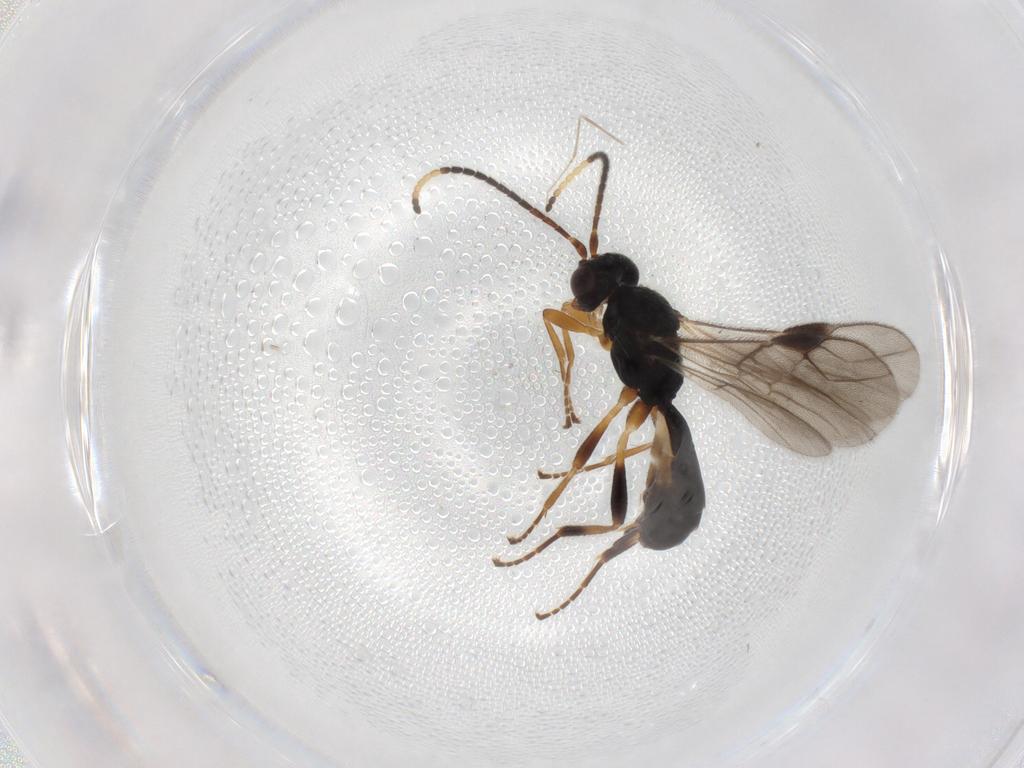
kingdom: Animalia
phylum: Arthropoda
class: Insecta
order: Hymenoptera
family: Braconidae
